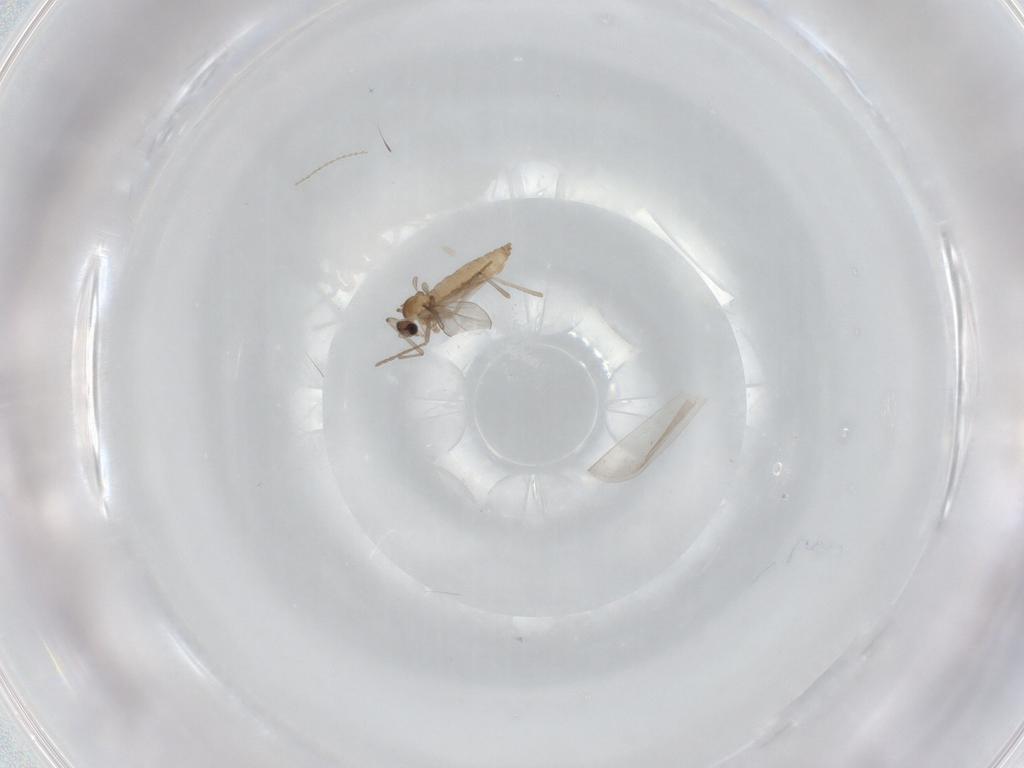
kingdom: Animalia
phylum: Arthropoda
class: Insecta
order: Diptera
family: Cecidomyiidae
